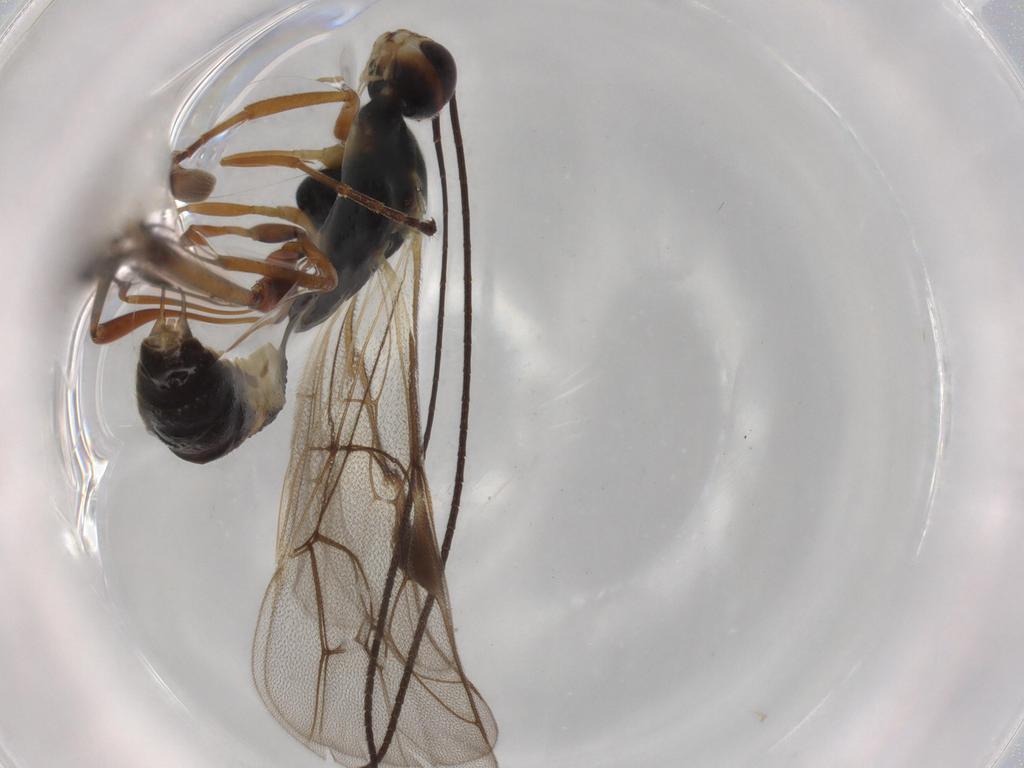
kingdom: Animalia
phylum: Arthropoda
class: Insecta
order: Hymenoptera
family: Ichneumonidae
